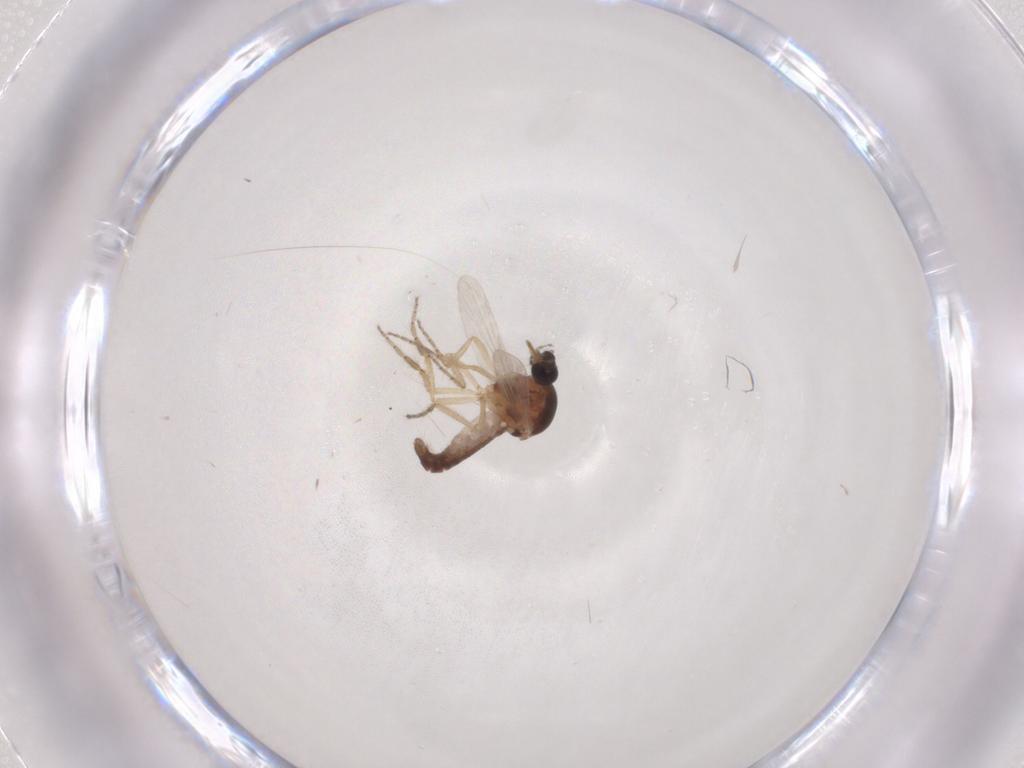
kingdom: Animalia
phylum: Arthropoda
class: Insecta
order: Diptera
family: Ceratopogonidae
